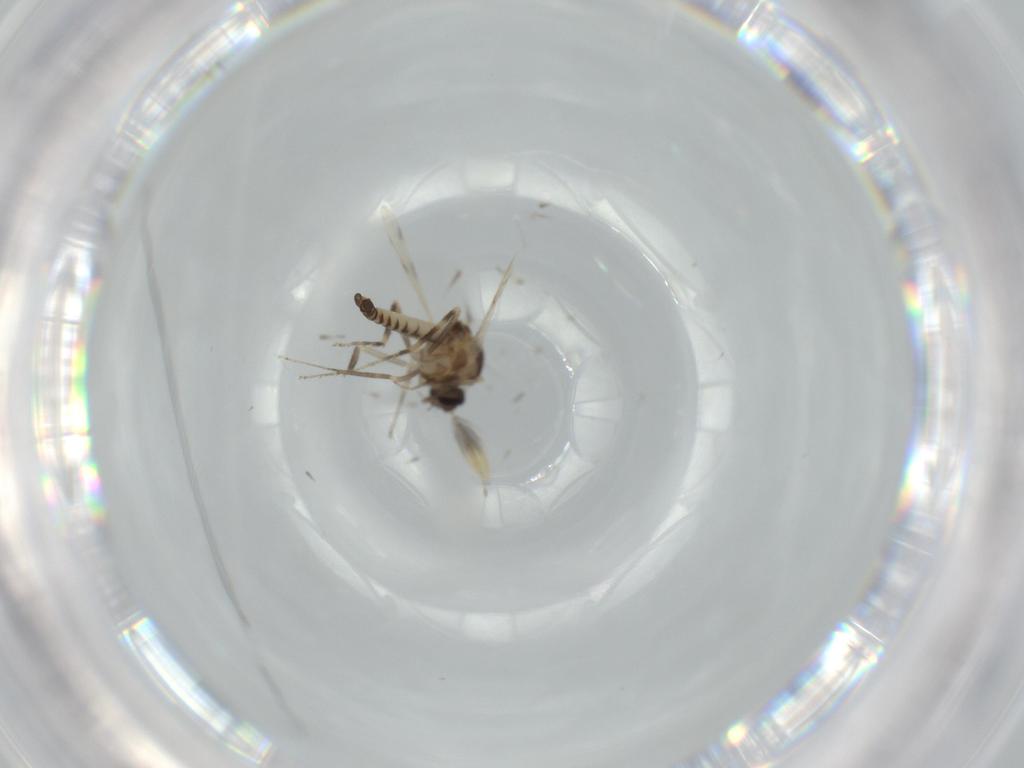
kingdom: Animalia
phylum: Arthropoda
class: Insecta
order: Diptera
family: Ceratopogonidae
